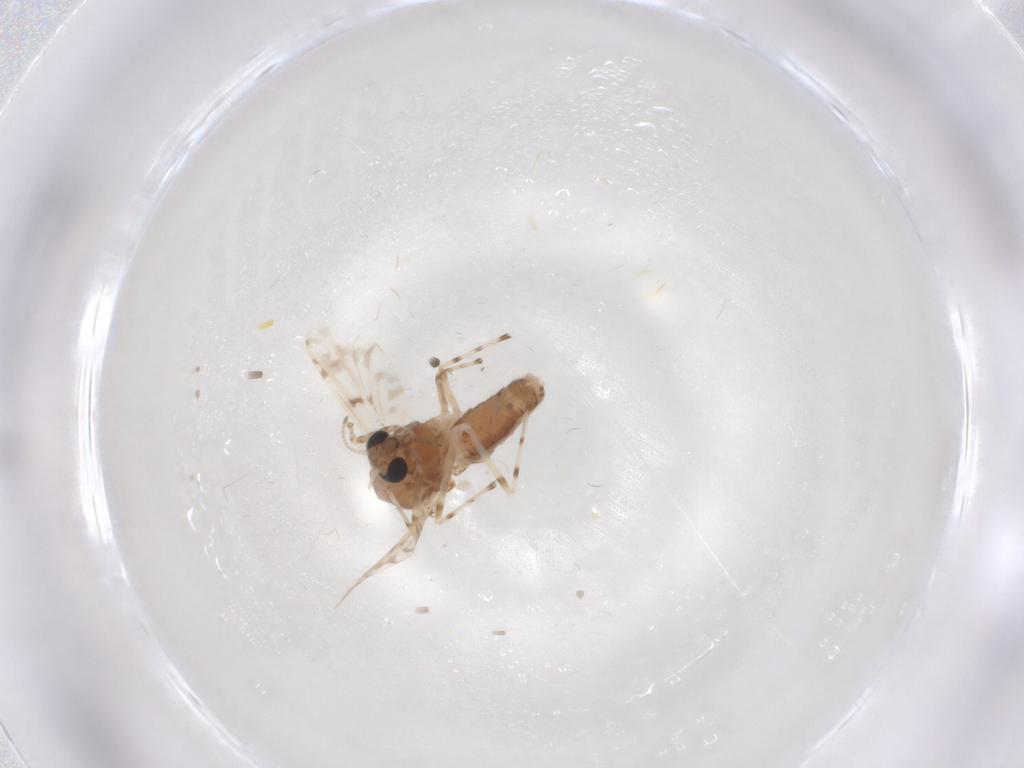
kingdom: Animalia
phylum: Arthropoda
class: Insecta
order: Diptera
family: Chironomidae
